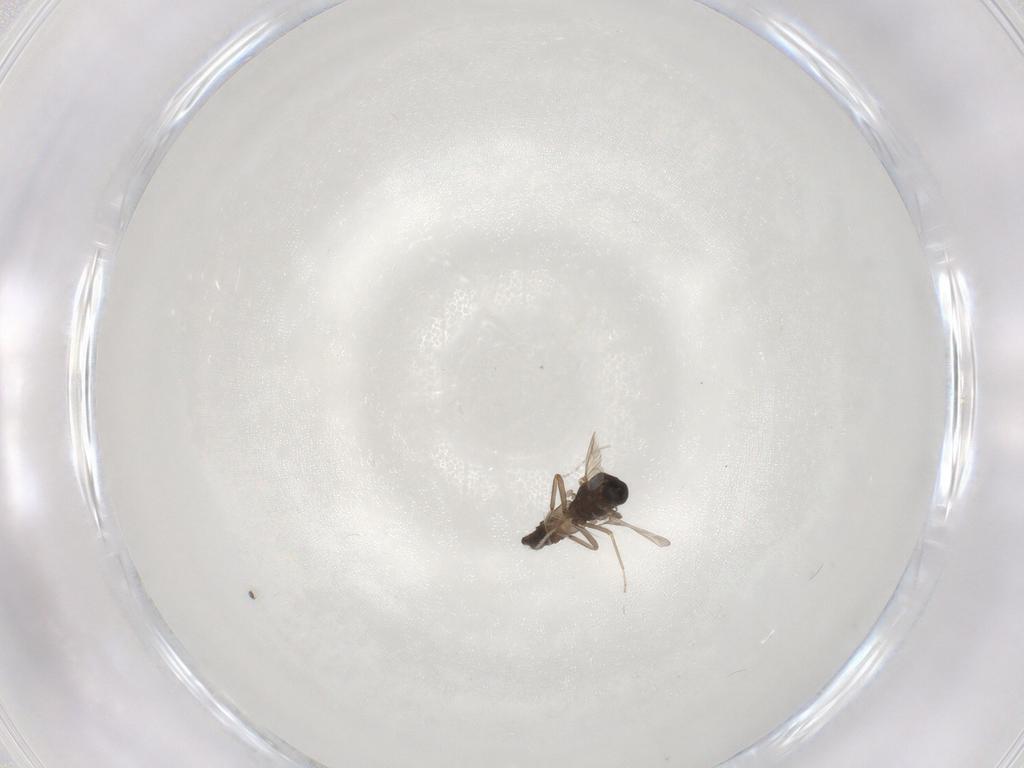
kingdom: Animalia
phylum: Arthropoda
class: Insecta
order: Diptera
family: Ceratopogonidae
